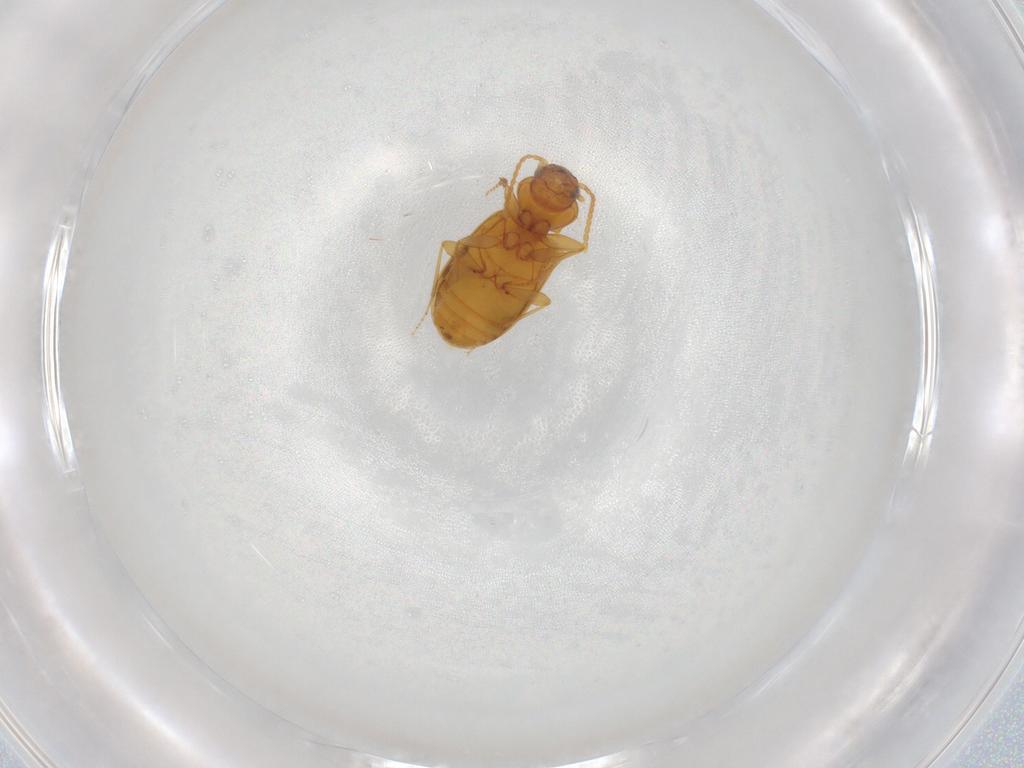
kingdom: Animalia
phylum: Arthropoda
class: Insecta
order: Coleoptera
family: Carabidae
